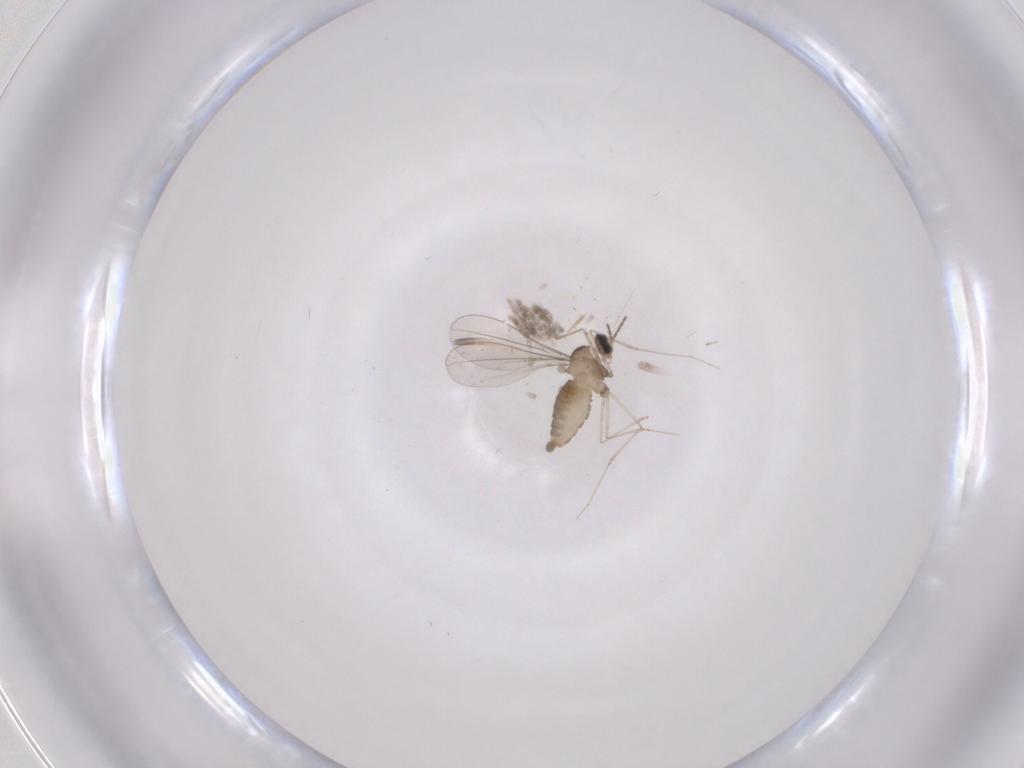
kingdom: Animalia
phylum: Arthropoda
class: Insecta
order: Diptera
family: Cecidomyiidae
